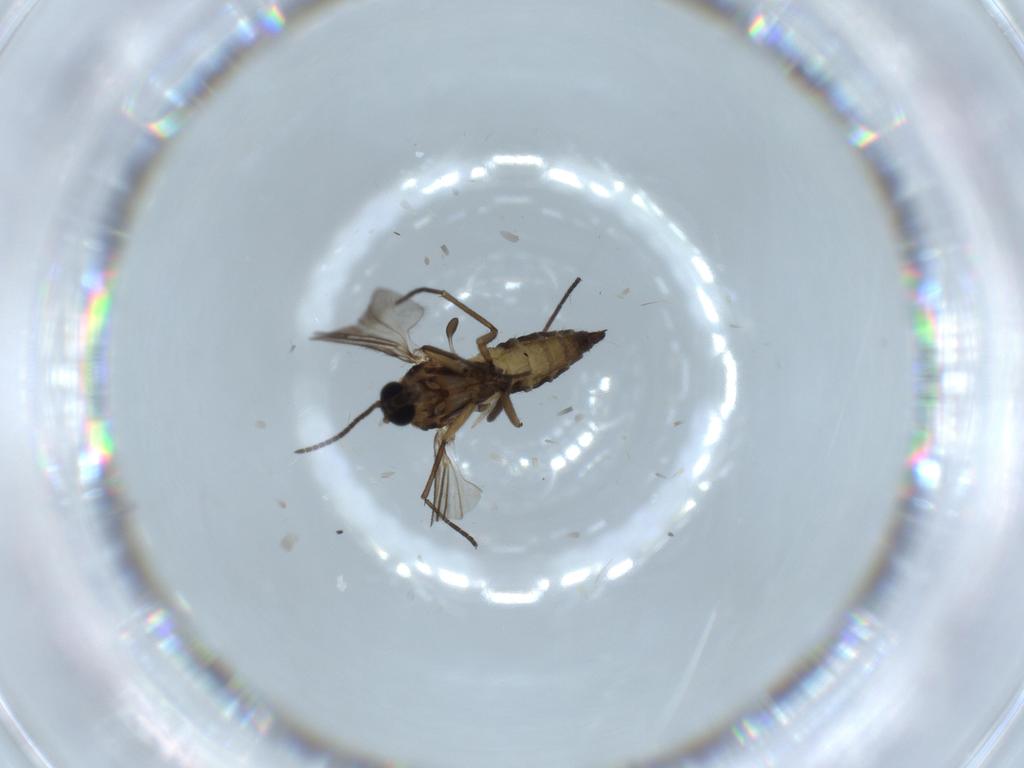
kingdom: Animalia
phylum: Arthropoda
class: Insecta
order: Diptera
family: Sciaridae
